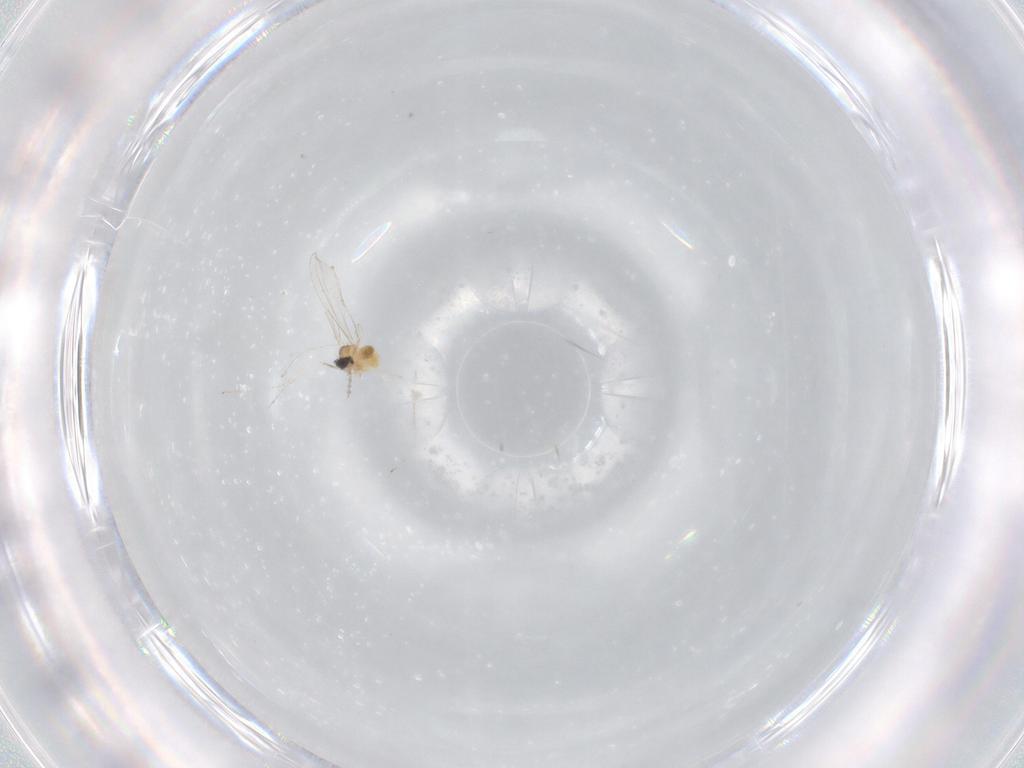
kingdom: Animalia
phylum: Arthropoda
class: Insecta
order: Diptera
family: Cecidomyiidae
